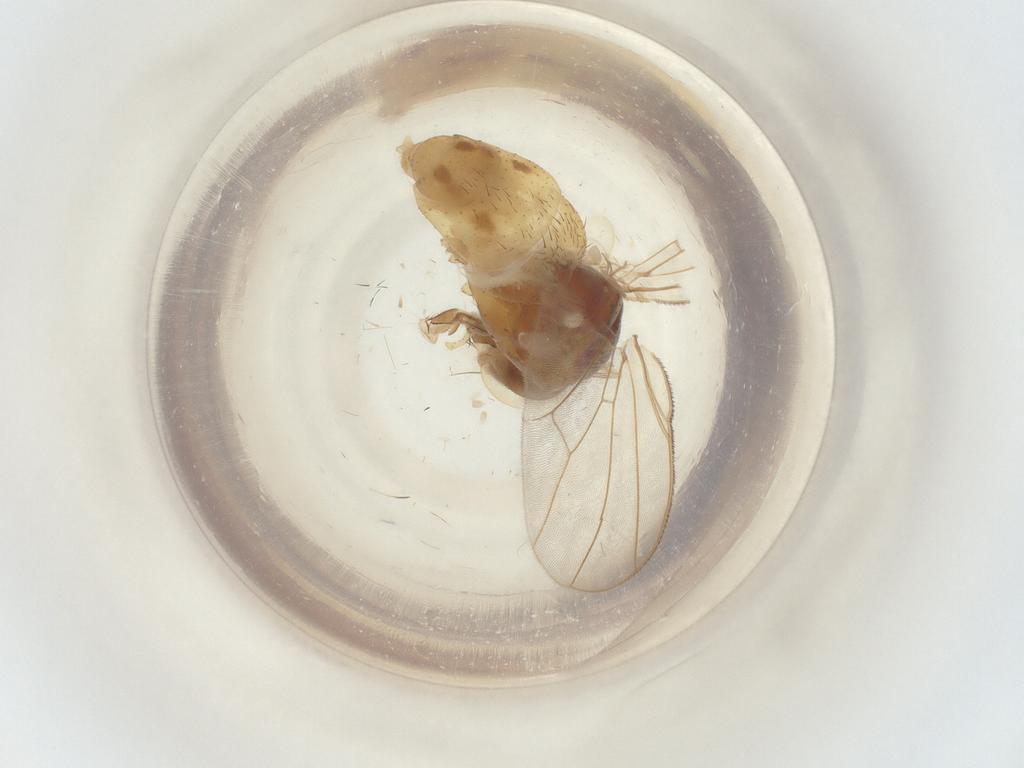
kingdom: Animalia
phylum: Arthropoda
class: Insecta
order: Diptera
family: Muscidae
